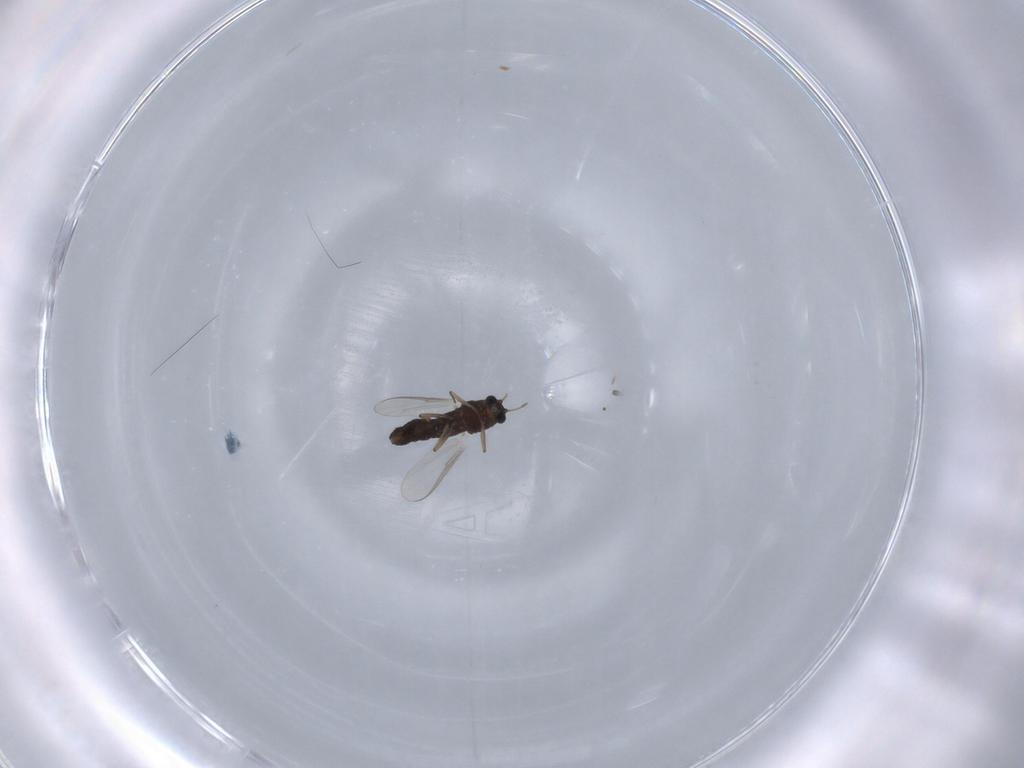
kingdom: Animalia
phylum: Arthropoda
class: Insecta
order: Diptera
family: Chironomidae
